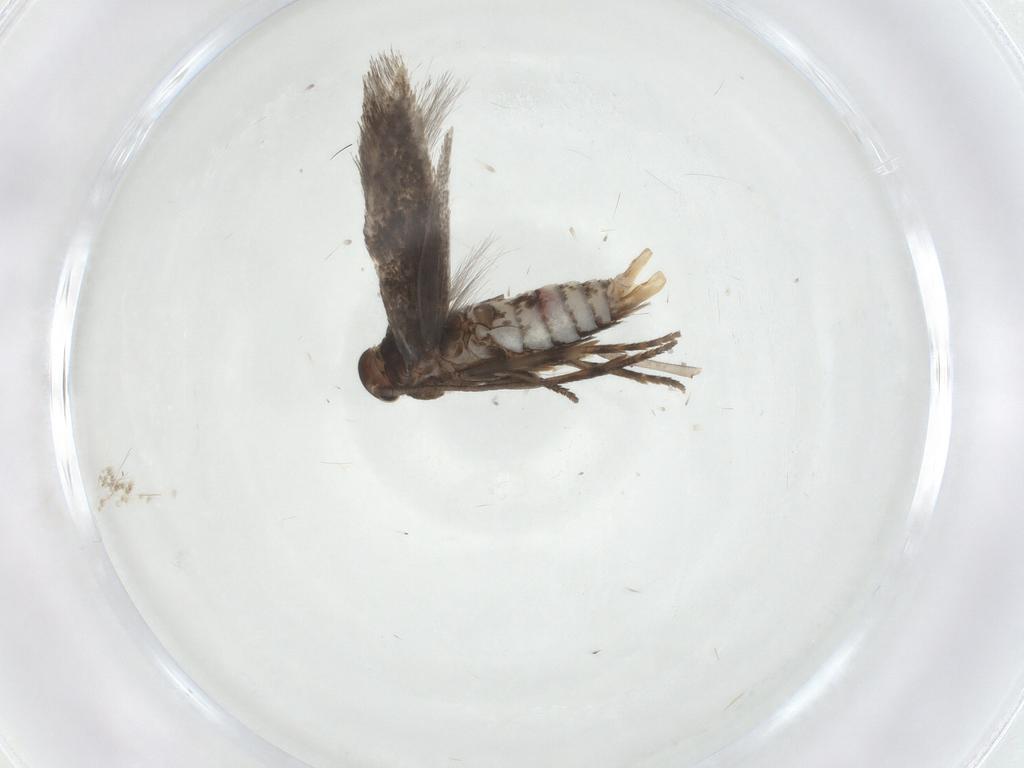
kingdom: Animalia
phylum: Arthropoda
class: Insecta
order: Lepidoptera
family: Elachistidae
